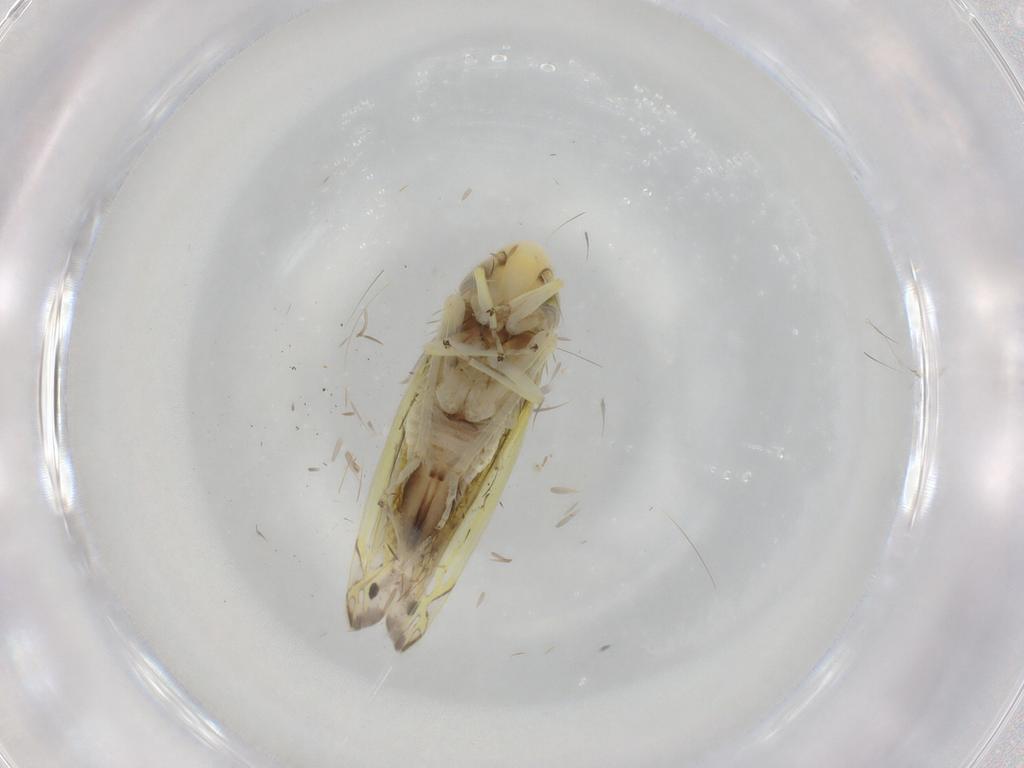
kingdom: Animalia
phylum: Arthropoda
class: Insecta
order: Hemiptera
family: Cicadellidae
